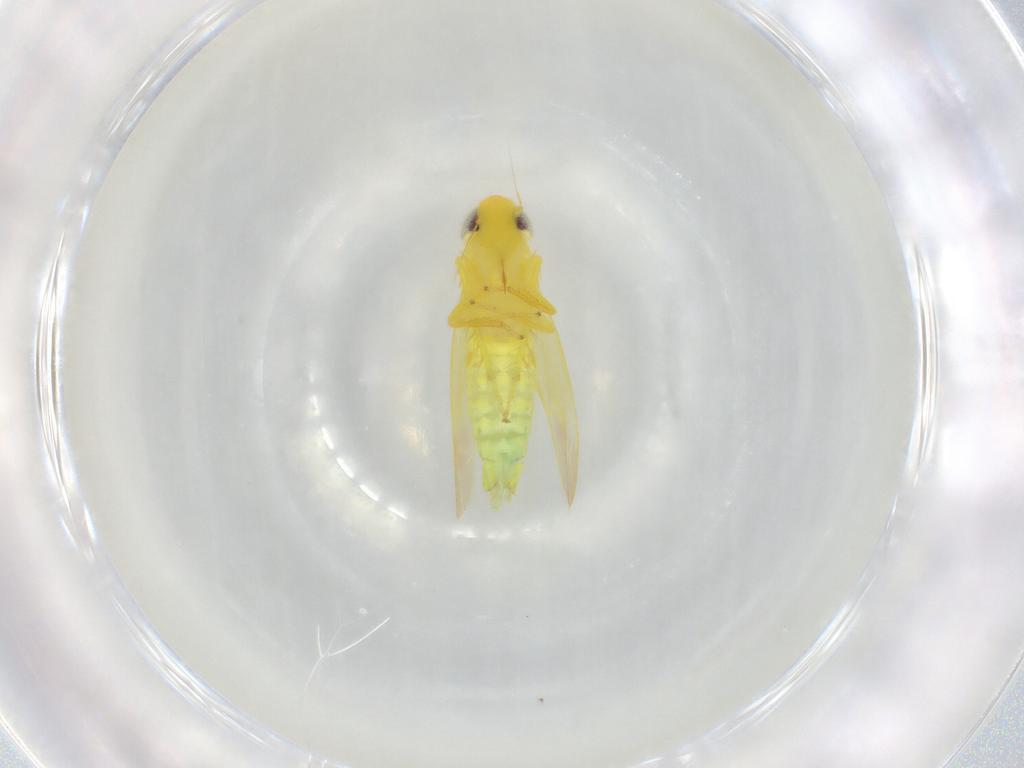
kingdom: Animalia
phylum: Arthropoda
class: Insecta
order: Hemiptera
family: Cicadellidae
